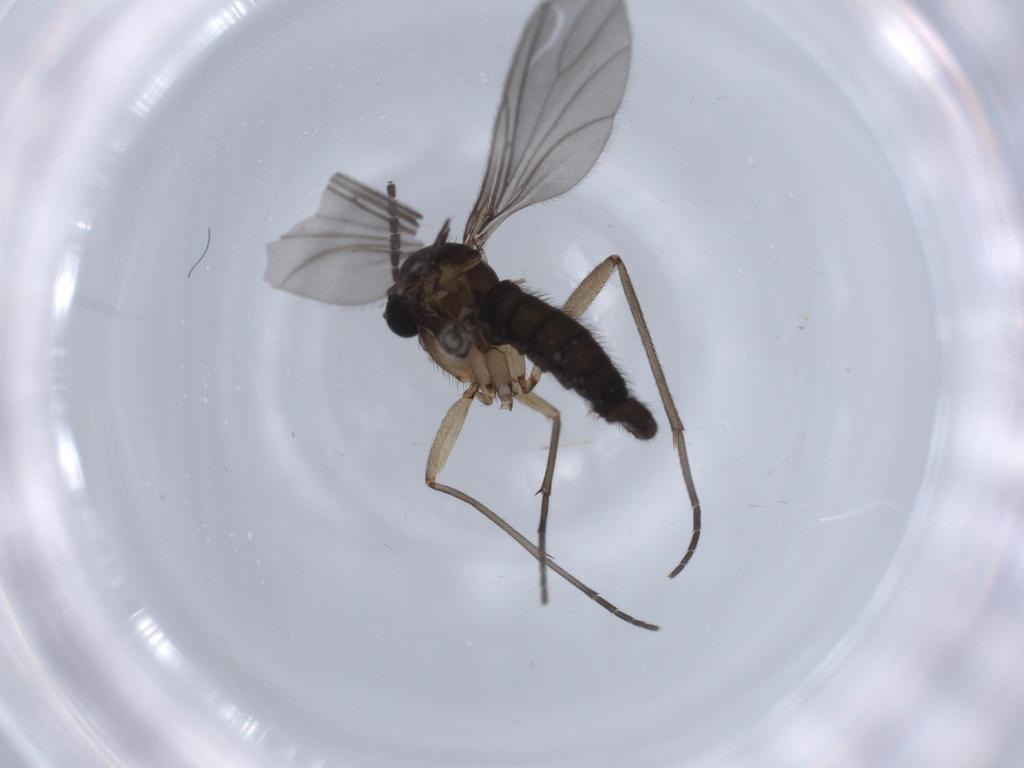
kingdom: Animalia
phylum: Arthropoda
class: Insecta
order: Diptera
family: Sciaridae
